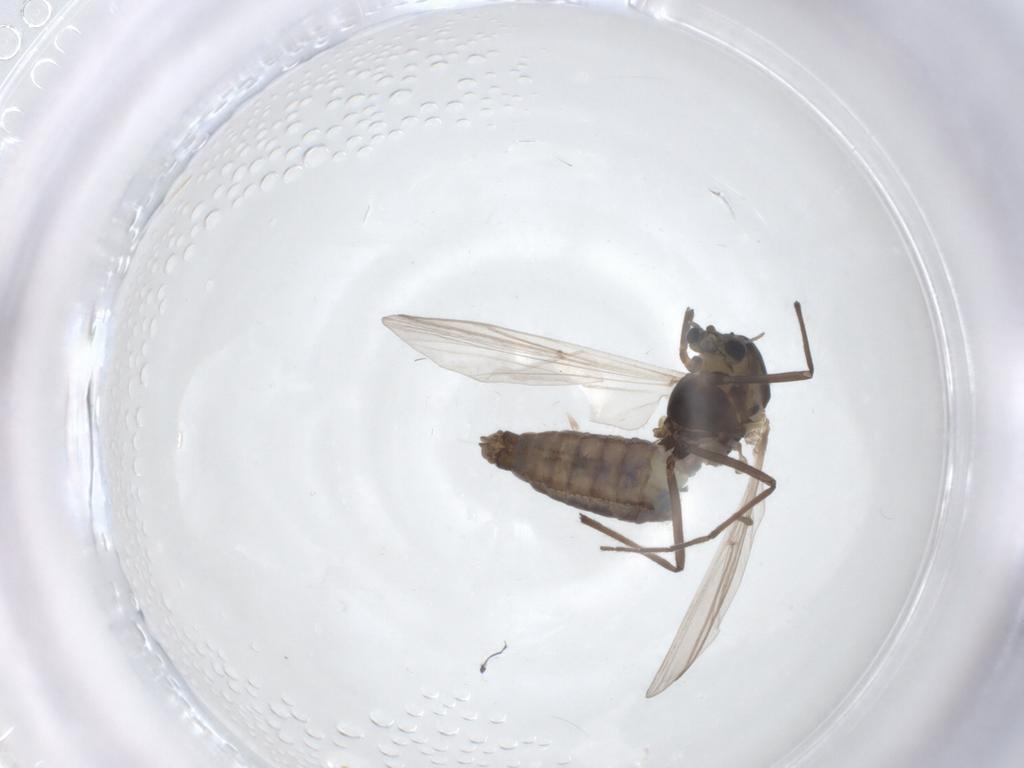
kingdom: Animalia
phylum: Arthropoda
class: Insecta
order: Diptera
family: Chironomidae
